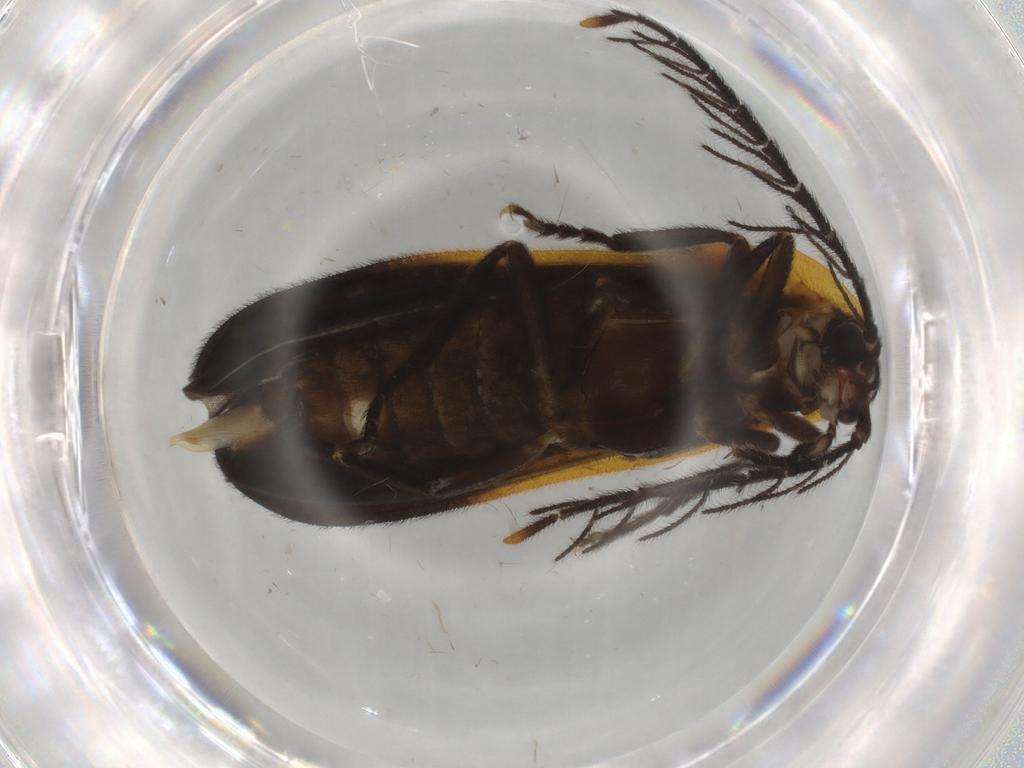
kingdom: Animalia
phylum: Arthropoda
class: Insecta
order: Coleoptera
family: Lampyridae
